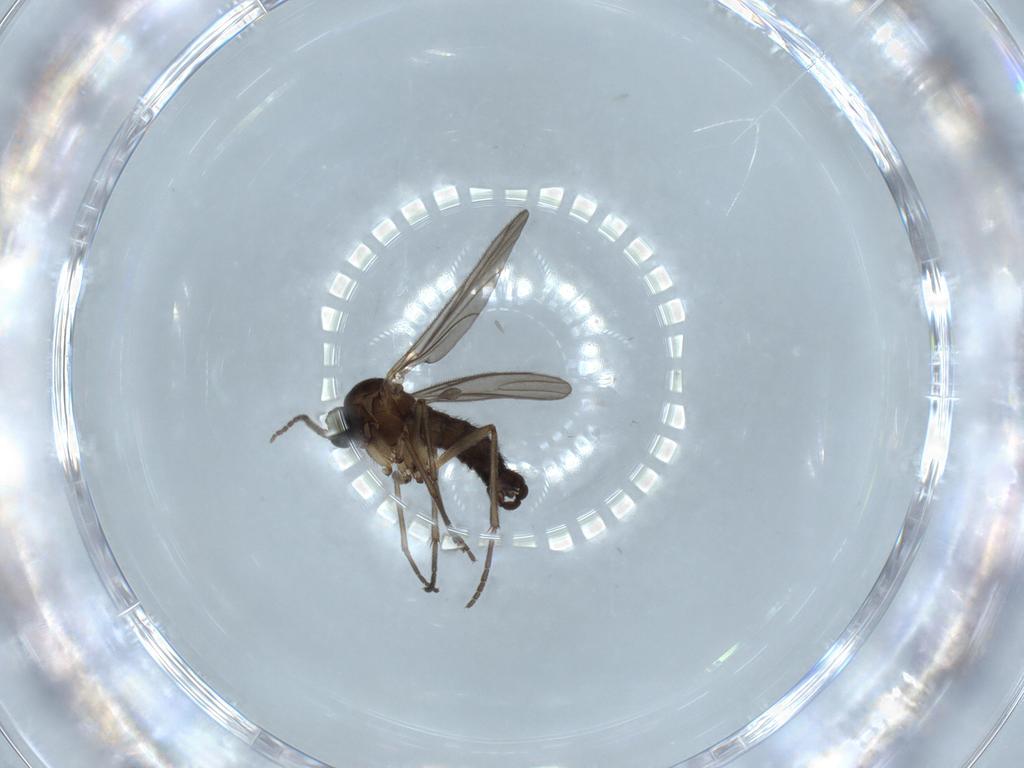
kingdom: Animalia
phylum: Arthropoda
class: Insecta
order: Diptera
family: Sciaridae
